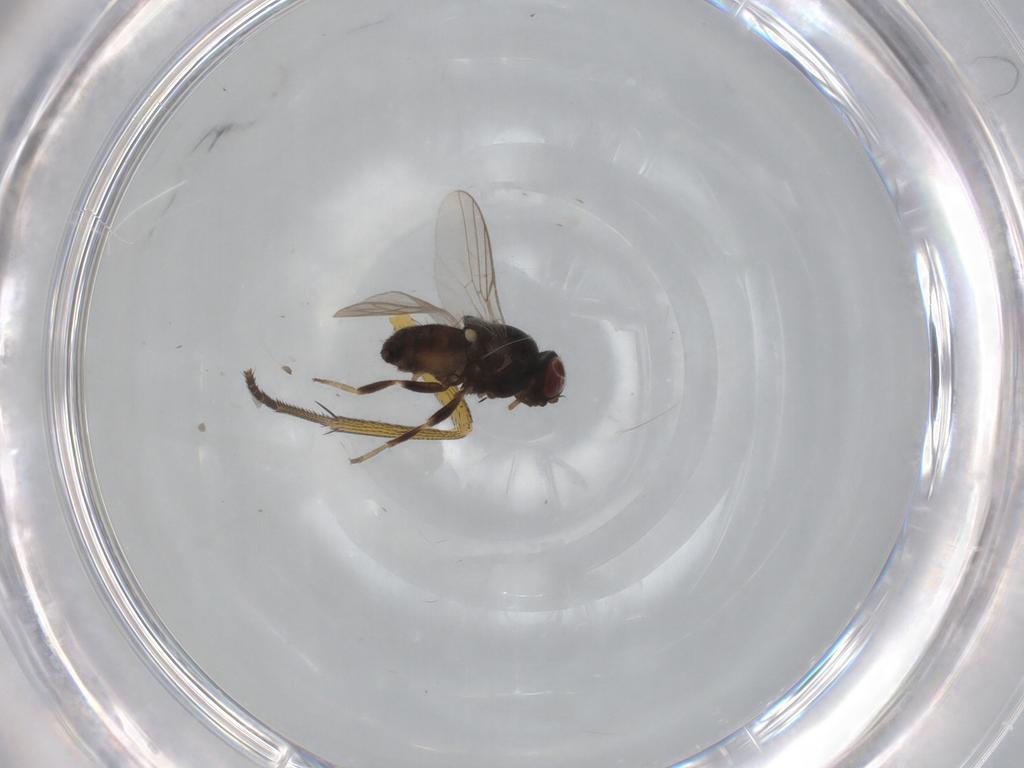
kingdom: Animalia
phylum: Arthropoda
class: Insecta
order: Diptera
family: Chloropidae
